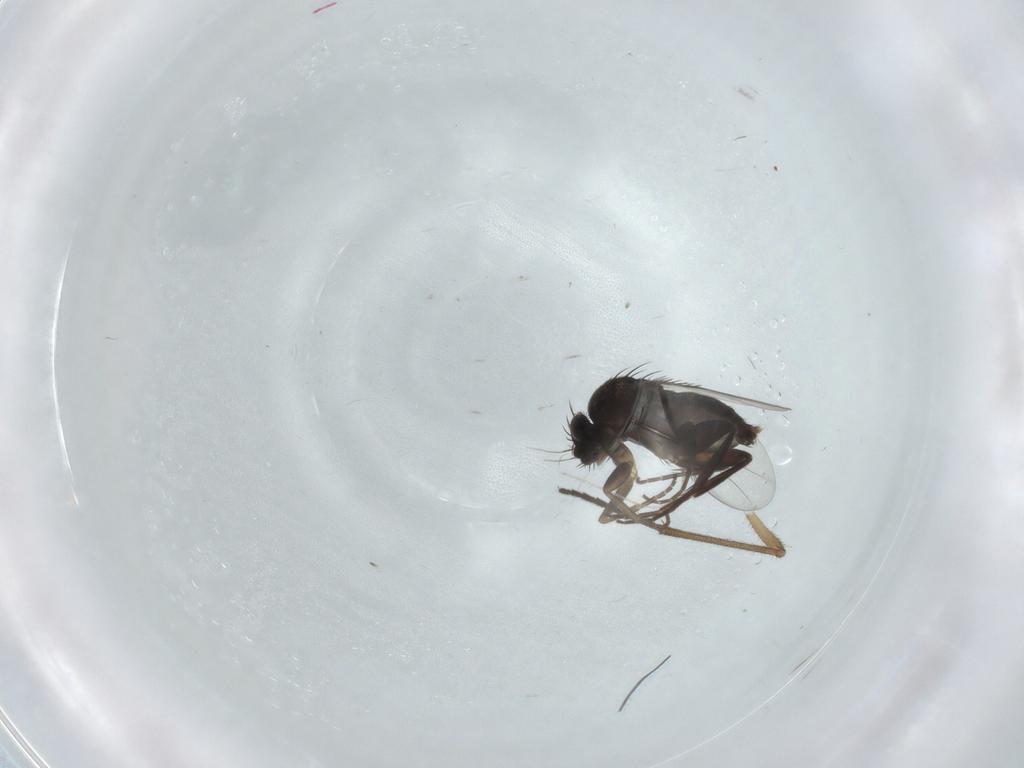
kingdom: Animalia
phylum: Arthropoda
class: Insecta
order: Diptera
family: Phoridae
